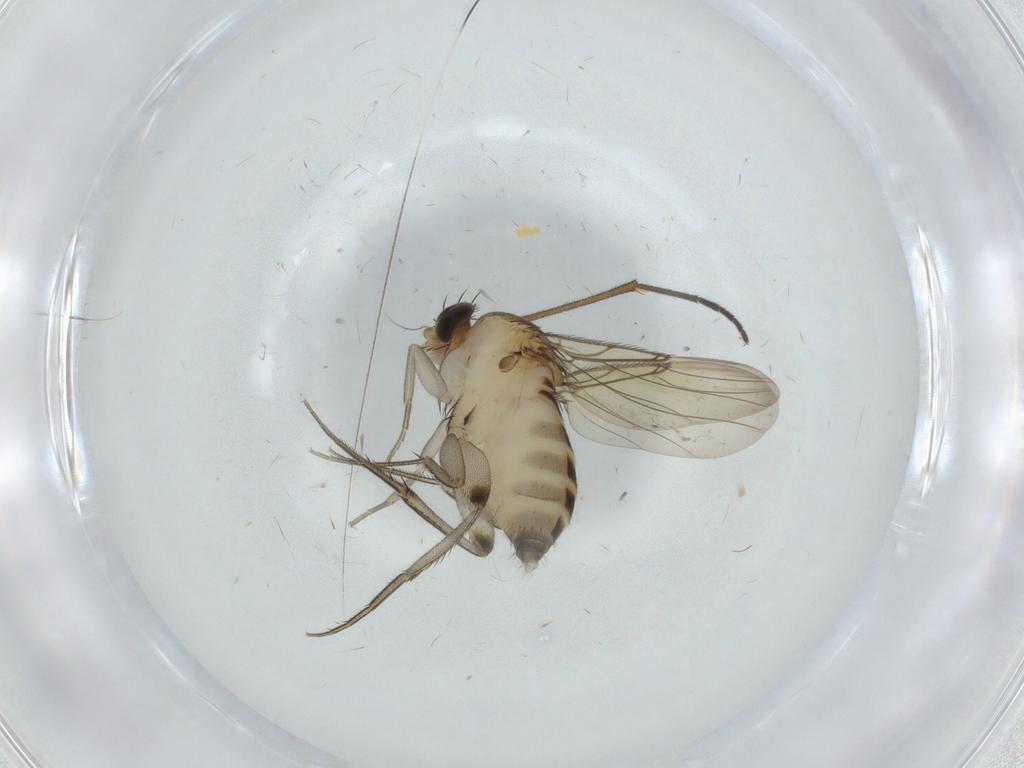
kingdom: Animalia
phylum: Arthropoda
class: Insecta
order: Diptera
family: Phoridae
